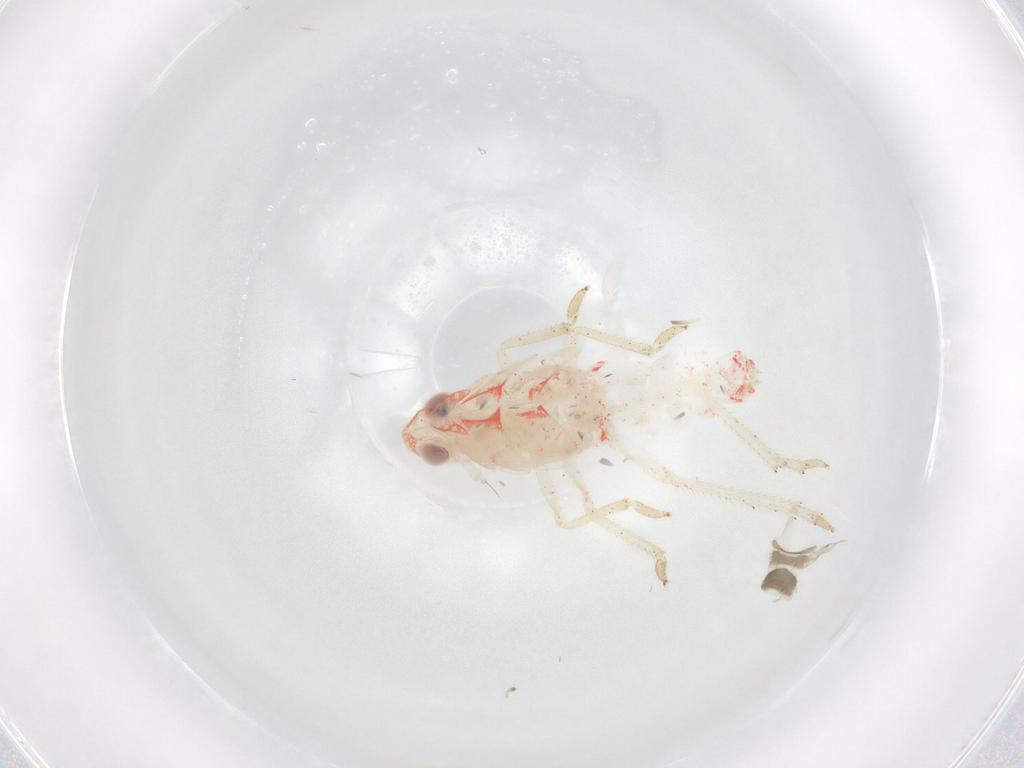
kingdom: Animalia
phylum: Arthropoda
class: Insecta
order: Hemiptera
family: Tropiduchidae
